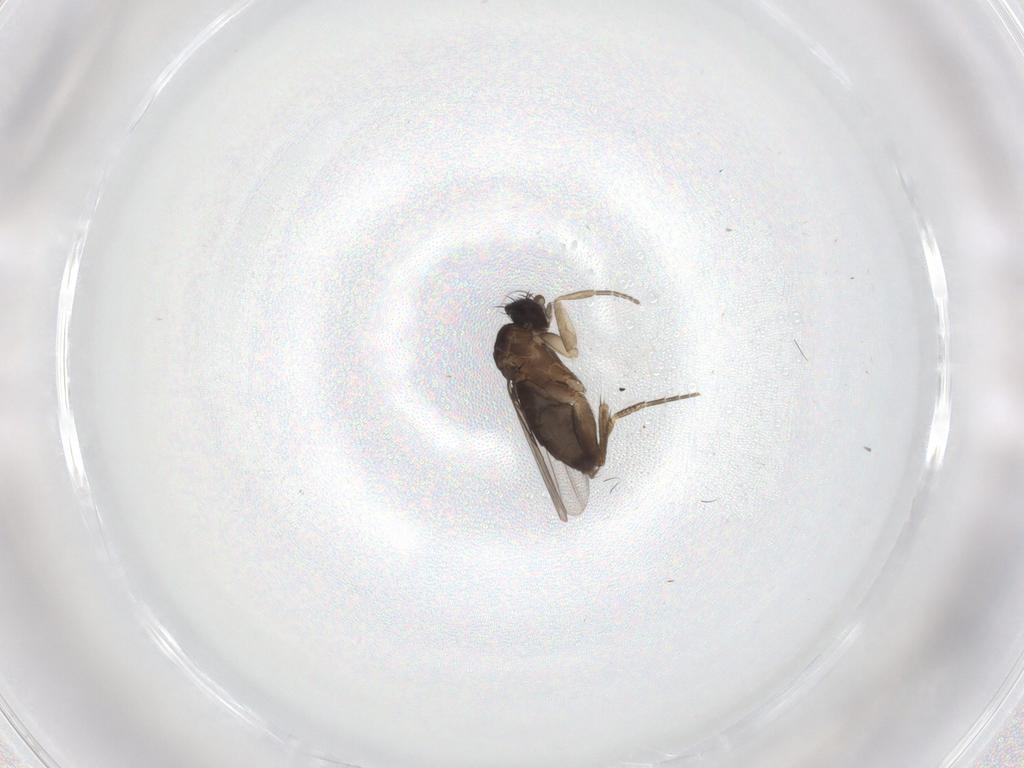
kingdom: Animalia
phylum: Arthropoda
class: Insecta
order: Diptera
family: Phoridae
